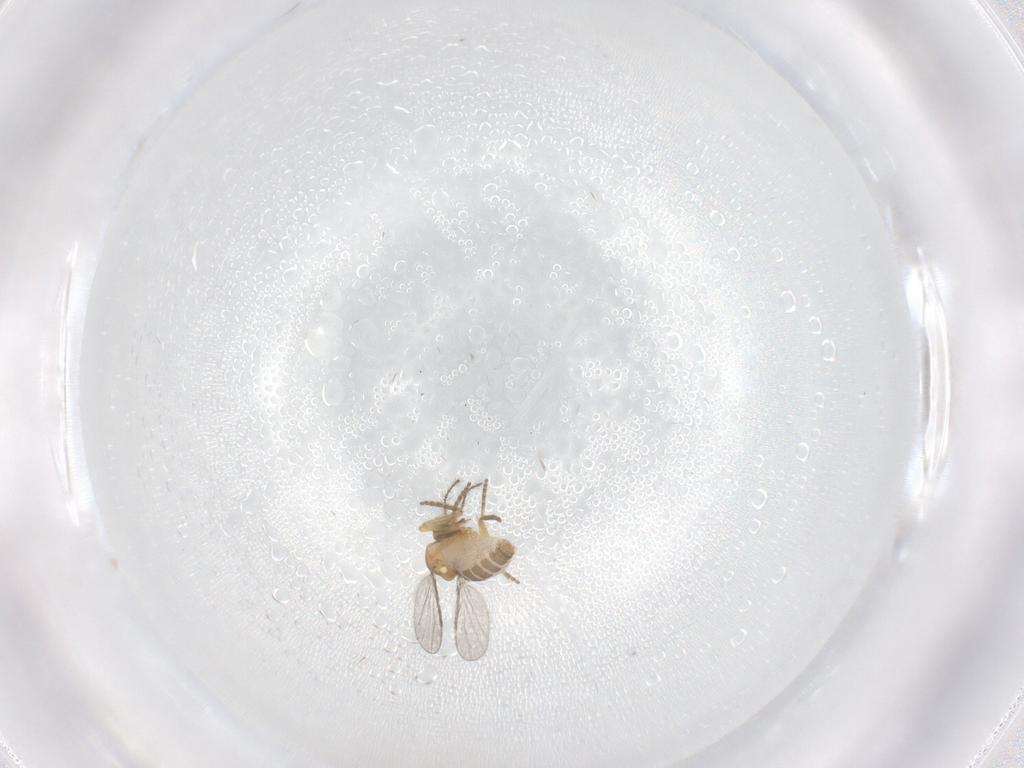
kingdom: Animalia
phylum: Arthropoda
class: Insecta
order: Diptera
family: Ceratopogonidae
